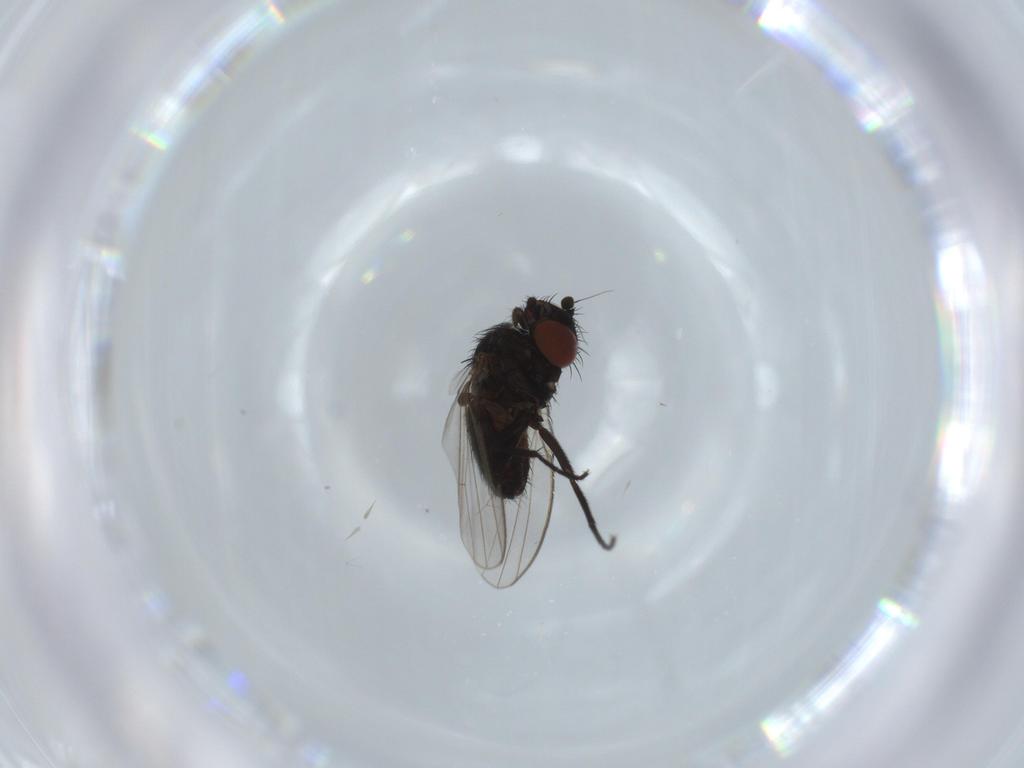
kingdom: Animalia
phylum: Arthropoda
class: Insecta
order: Diptera
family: Milichiidae
